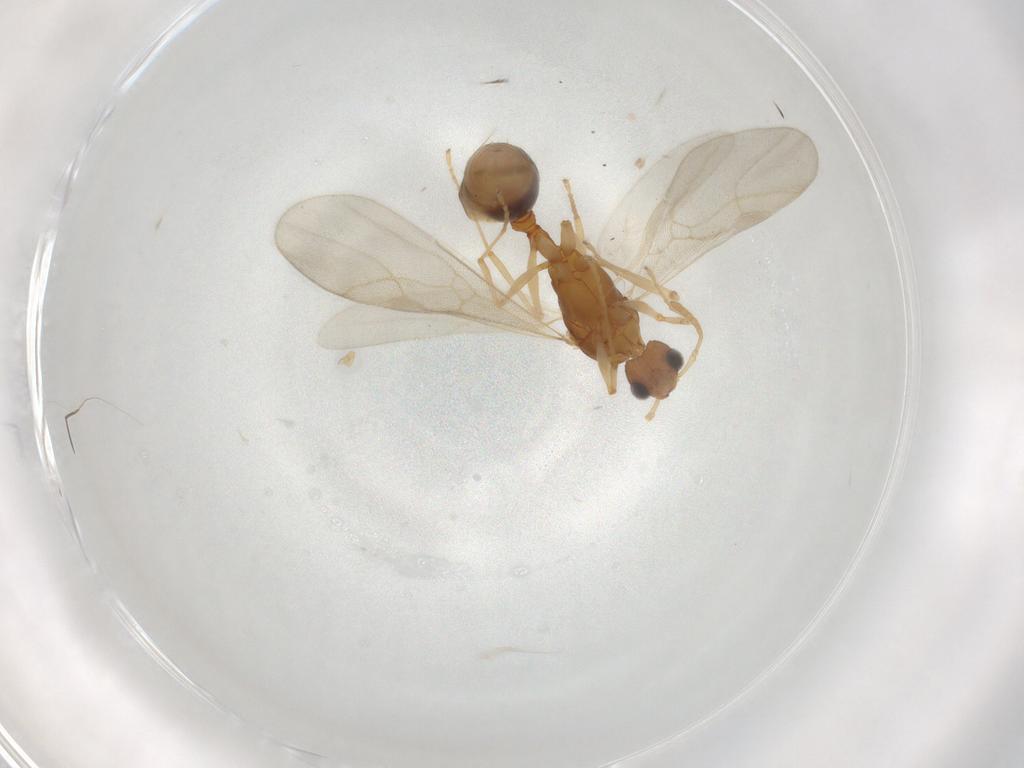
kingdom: Animalia
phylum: Arthropoda
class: Insecta
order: Hymenoptera
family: Formicidae
